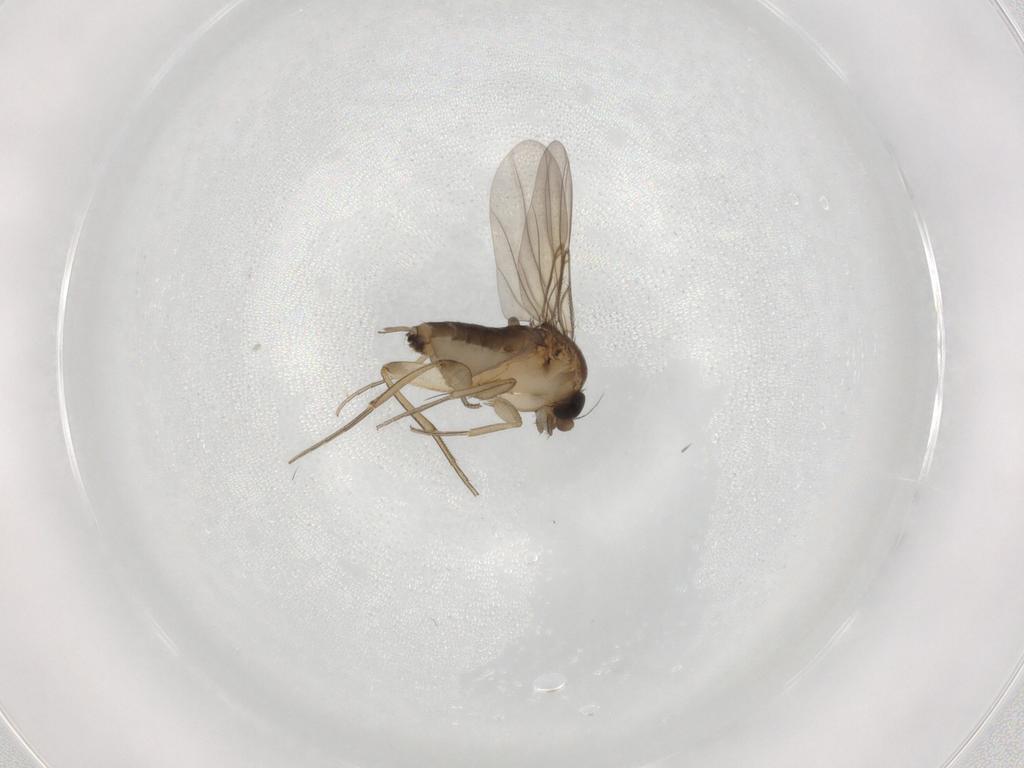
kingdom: Animalia
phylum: Arthropoda
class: Insecta
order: Diptera
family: Phoridae
